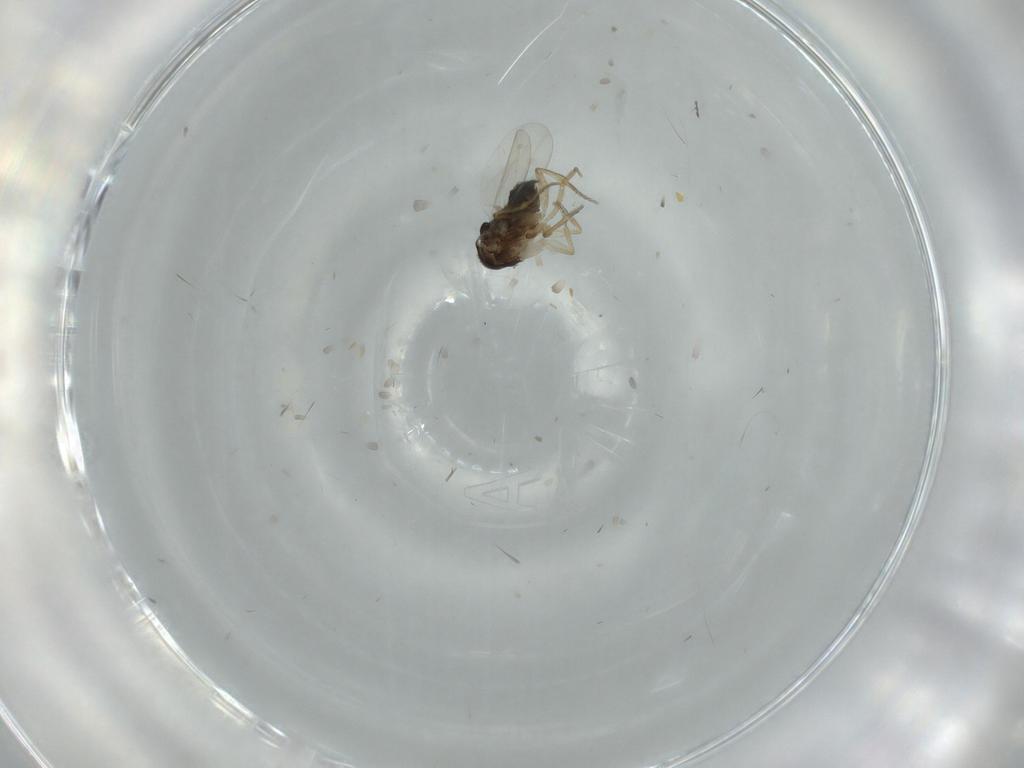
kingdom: Animalia
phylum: Arthropoda
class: Insecta
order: Diptera
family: Phoridae
